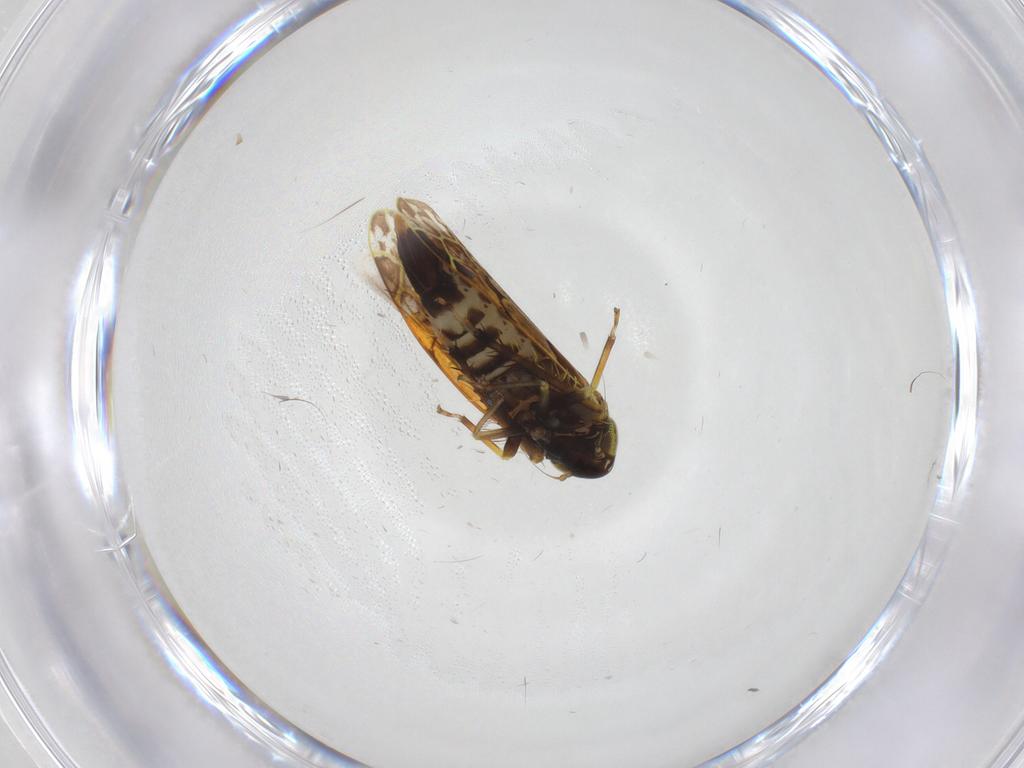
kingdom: Animalia
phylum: Arthropoda
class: Insecta
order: Hemiptera
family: Cicadellidae
